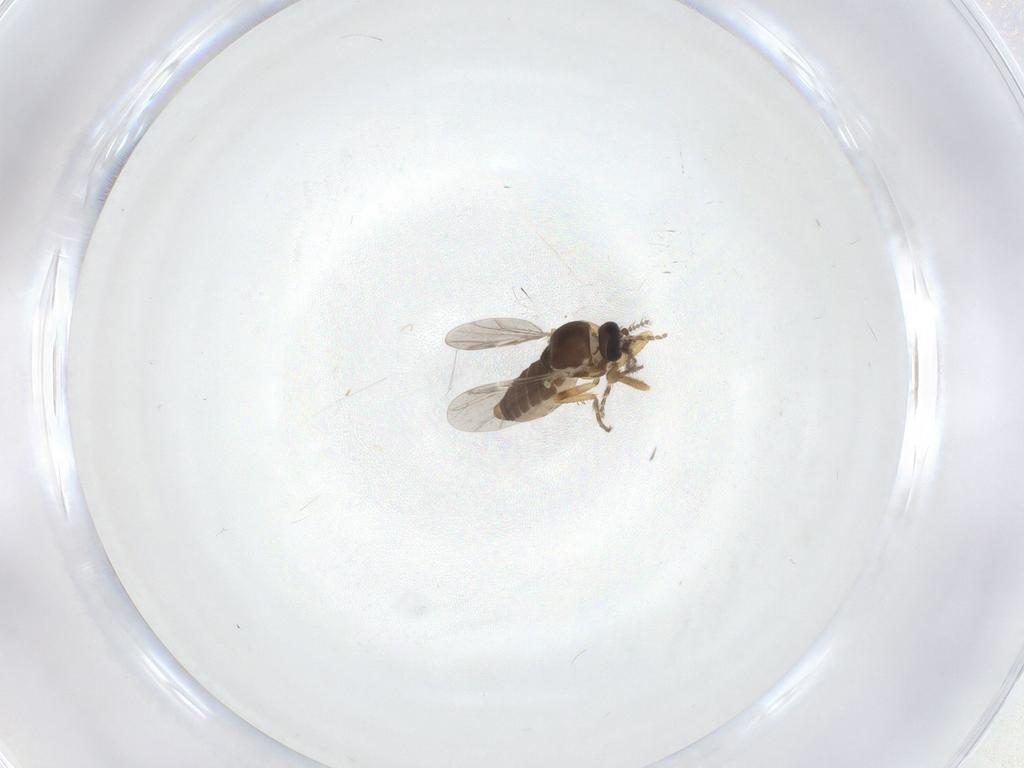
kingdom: Animalia
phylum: Arthropoda
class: Insecta
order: Diptera
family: Ceratopogonidae
